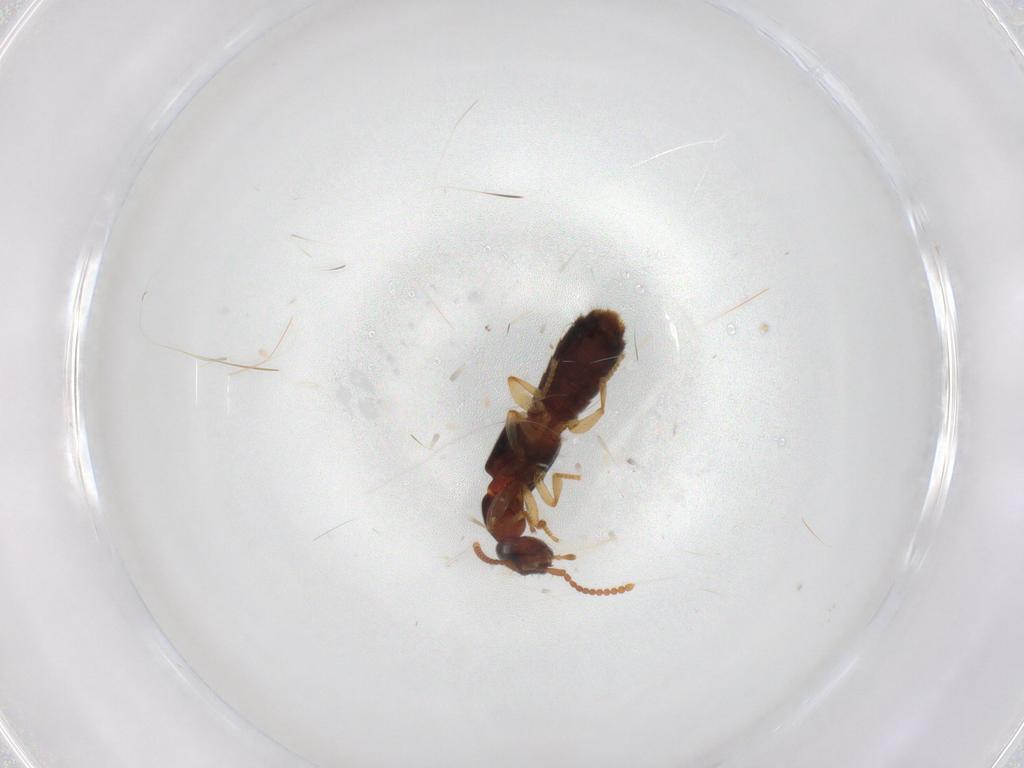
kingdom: Animalia
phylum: Arthropoda
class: Insecta
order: Coleoptera
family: Staphylinidae
